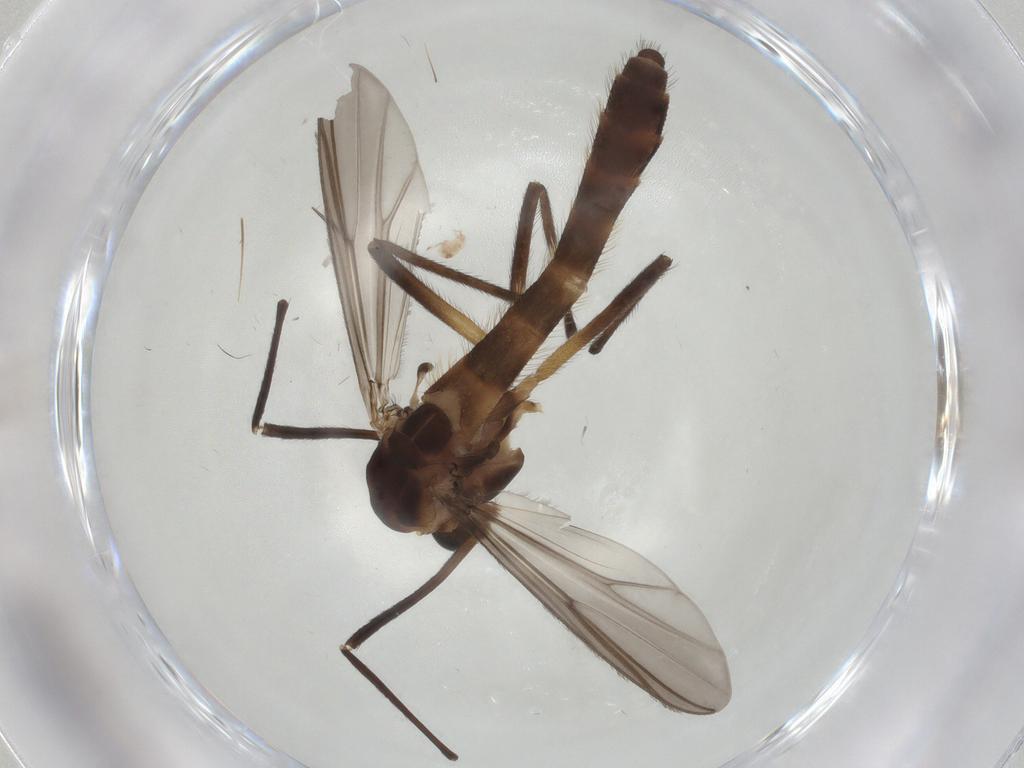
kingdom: Animalia
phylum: Arthropoda
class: Insecta
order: Diptera
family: Chironomidae
